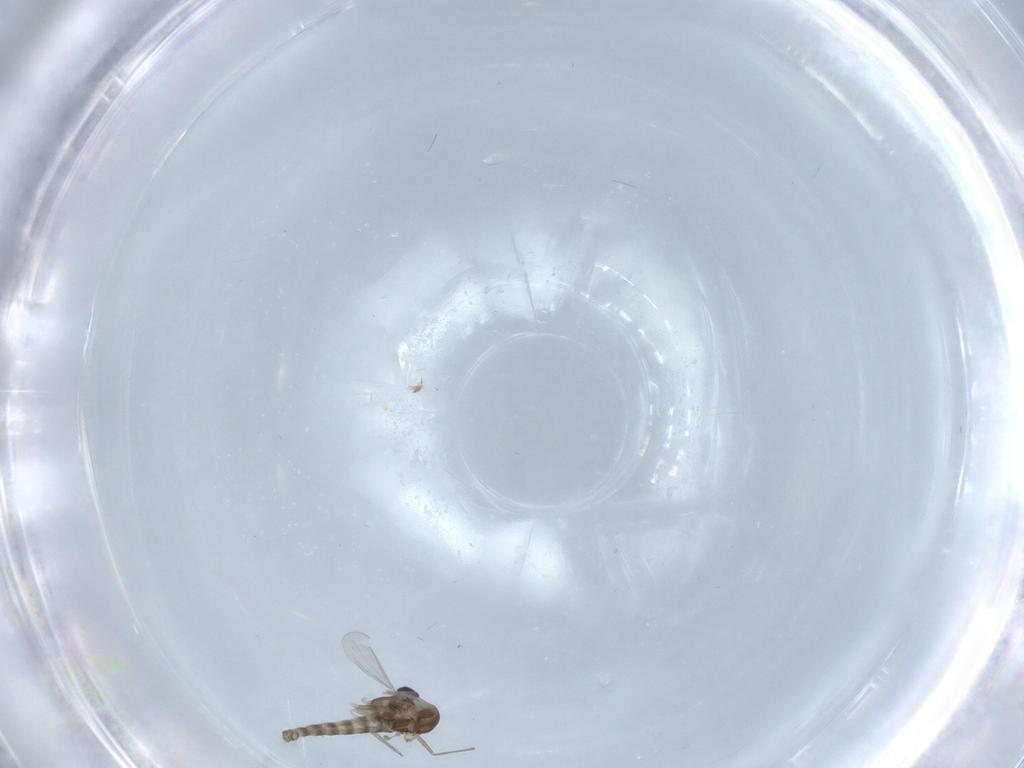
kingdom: Animalia
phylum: Arthropoda
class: Insecta
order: Diptera
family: Chironomidae
